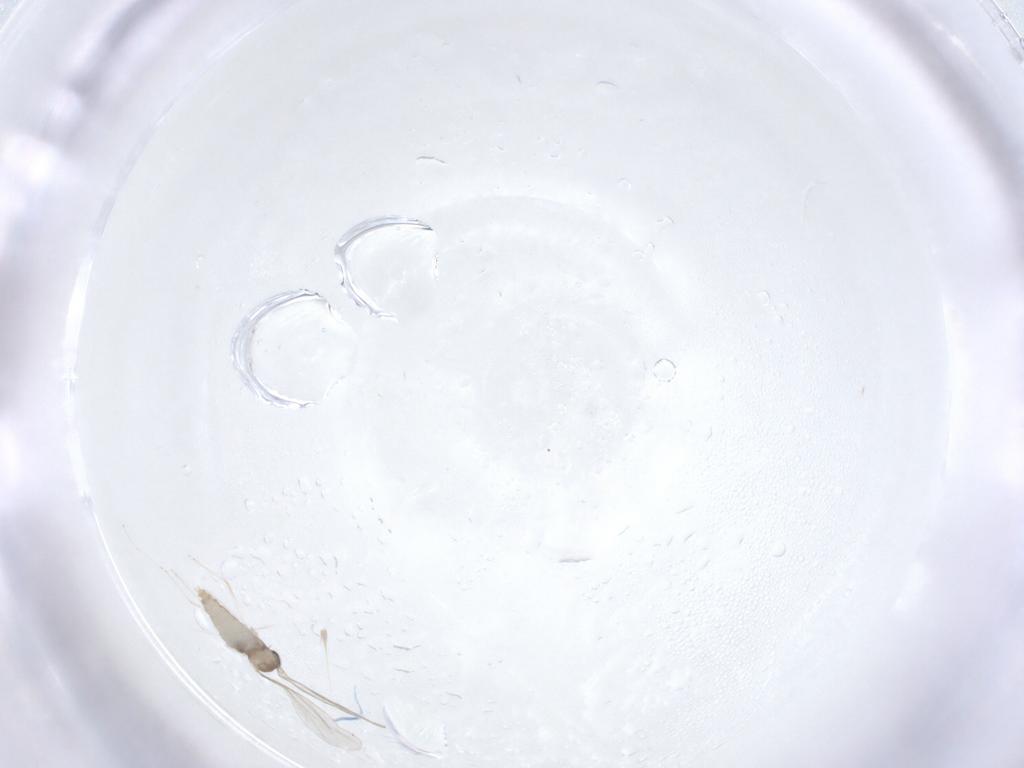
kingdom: Animalia
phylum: Arthropoda
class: Insecta
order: Diptera
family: Cecidomyiidae
